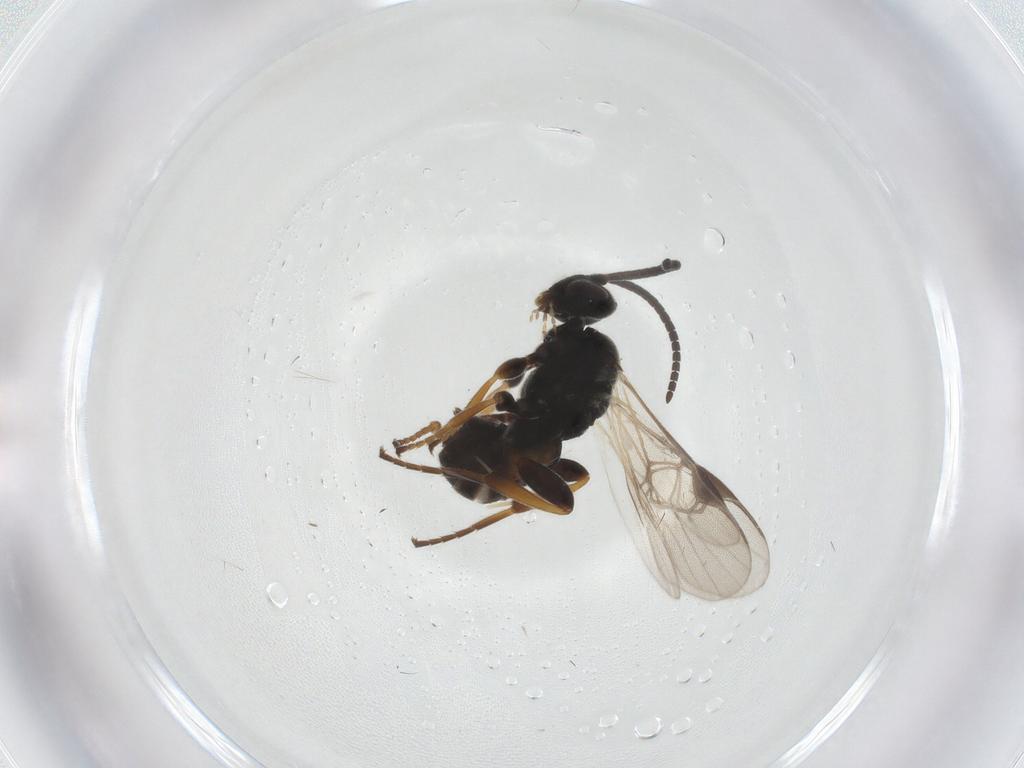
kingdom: Animalia
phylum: Arthropoda
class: Insecta
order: Hymenoptera
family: Braconidae
